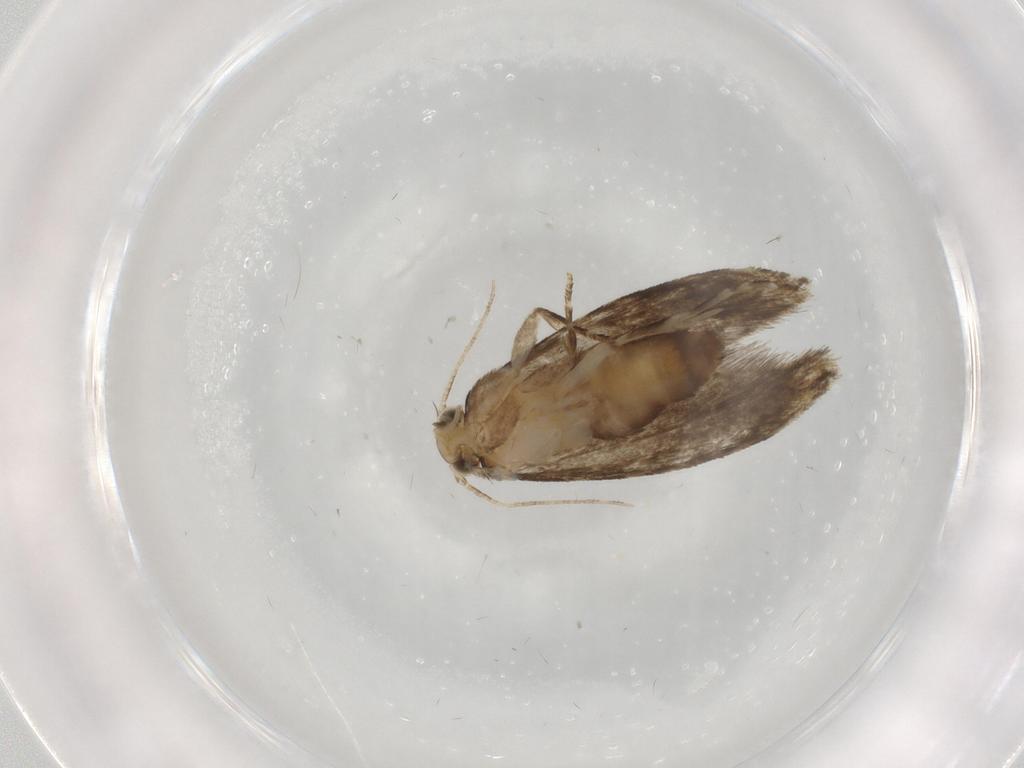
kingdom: Animalia
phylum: Arthropoda
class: Insecta
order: Lepidoptera
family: Tineidae
